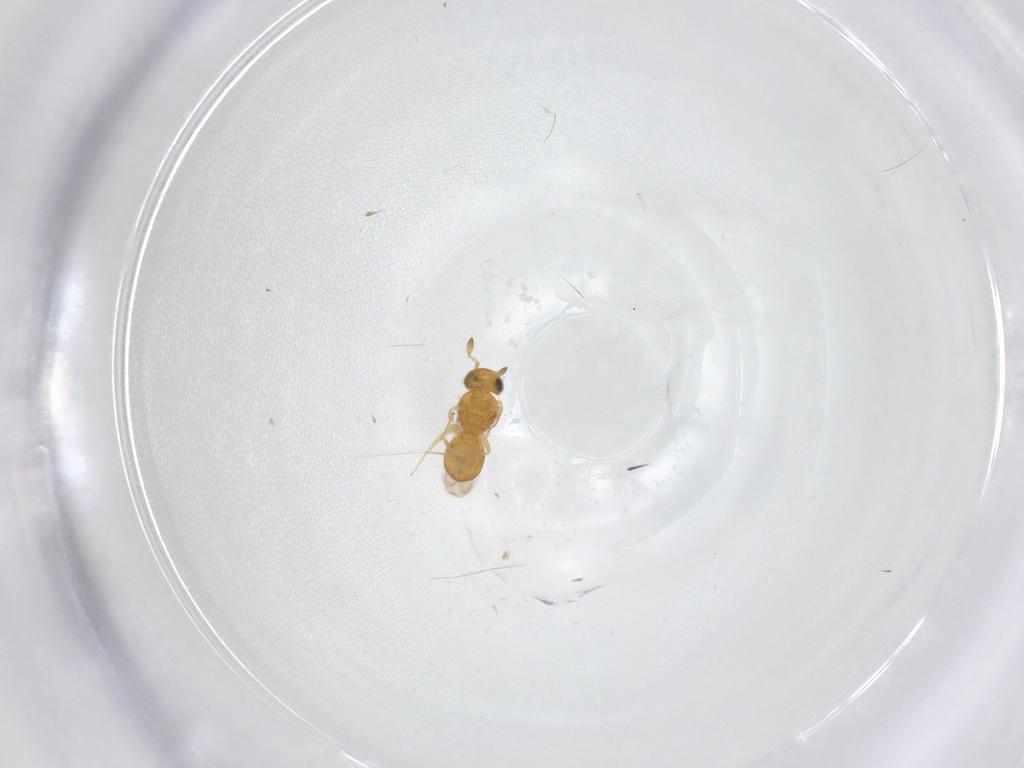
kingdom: Animalia
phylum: Arthropoda
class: Insecta
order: Hymenoptera
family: Scelionidae
